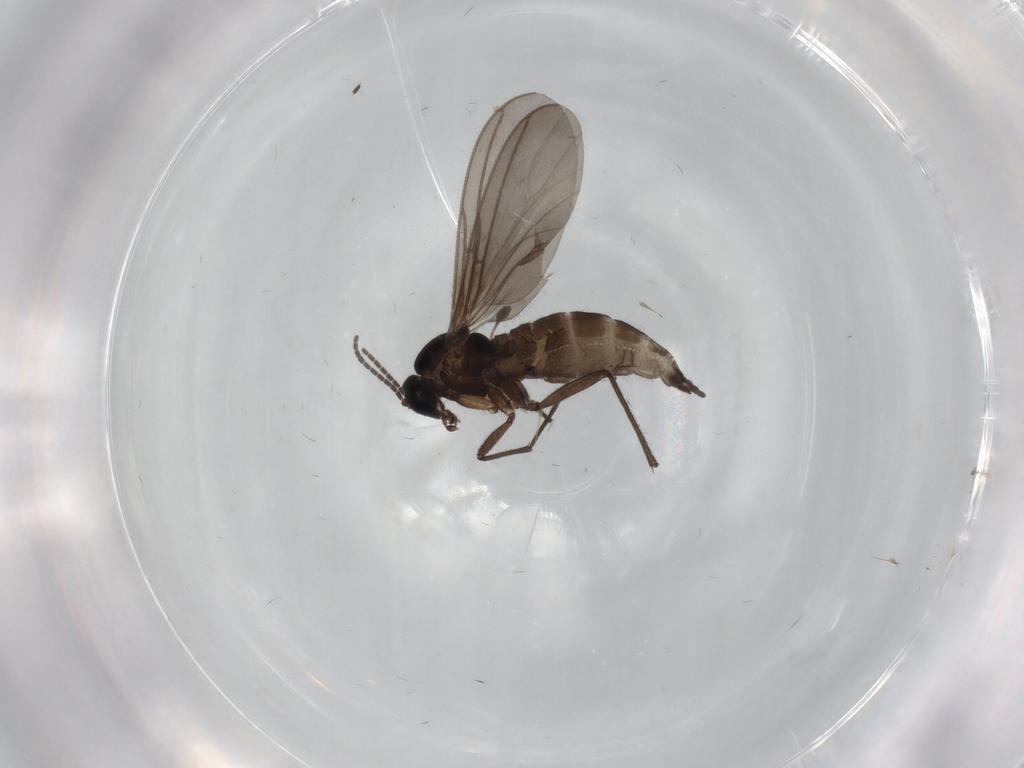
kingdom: Animalia
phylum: Arthropoda
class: Insecta
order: Diptera
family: Sciaridae
